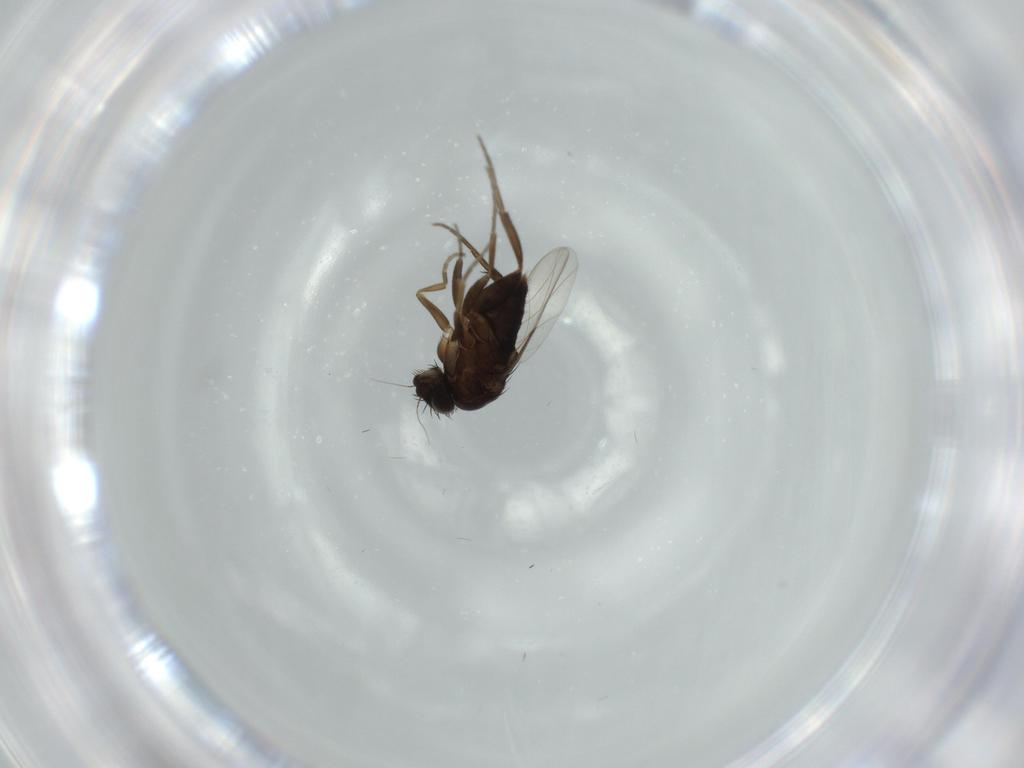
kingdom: Animalia
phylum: Arthropoda
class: Insecta
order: Diptera
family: Phoridae
